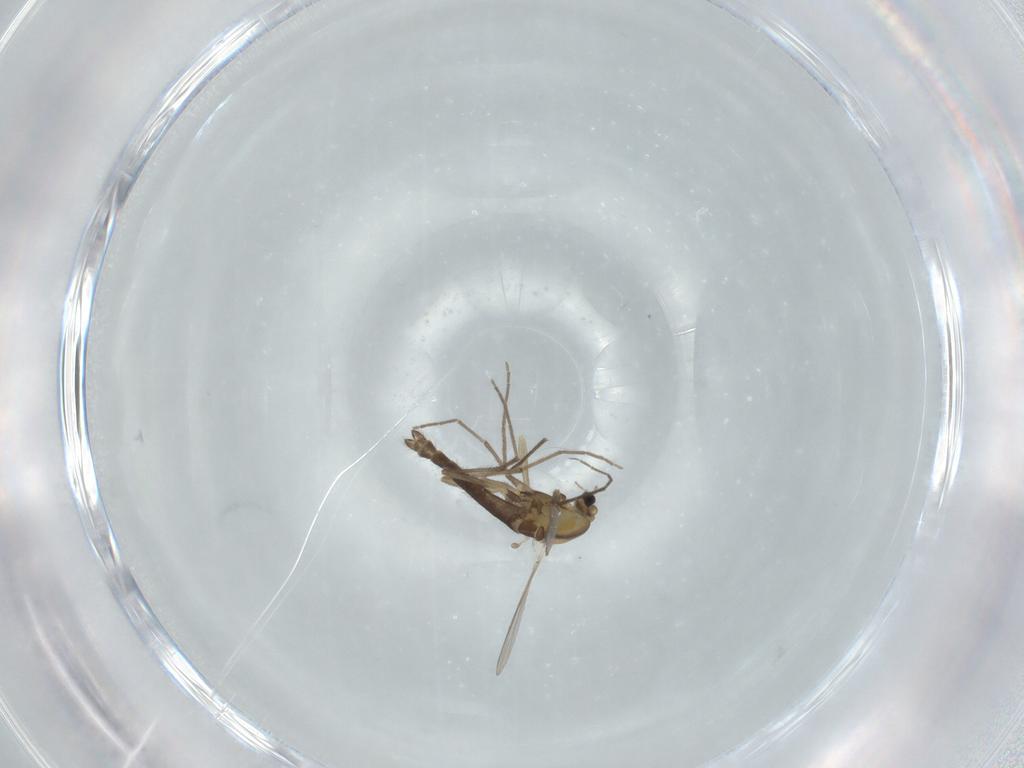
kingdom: Animalia
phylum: Arthropoda
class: Insecta
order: Diptera
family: Chironomidae
